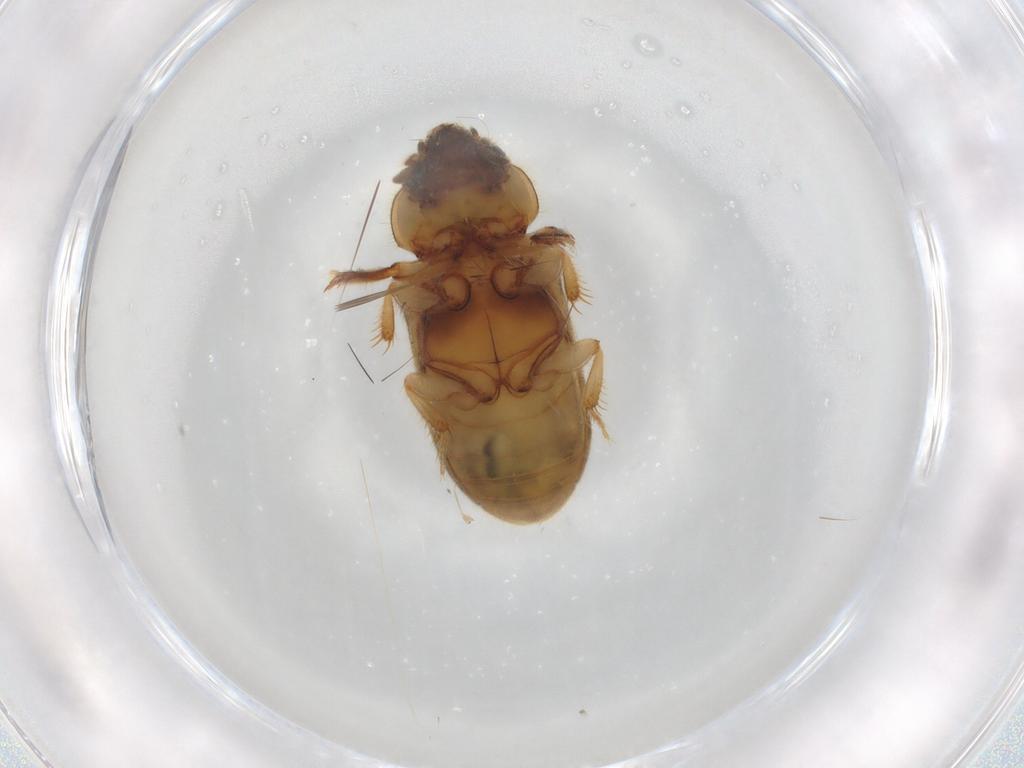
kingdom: Animalia
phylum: Arthropoda
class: Insecta
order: Coleoptera
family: Heteroceridae
